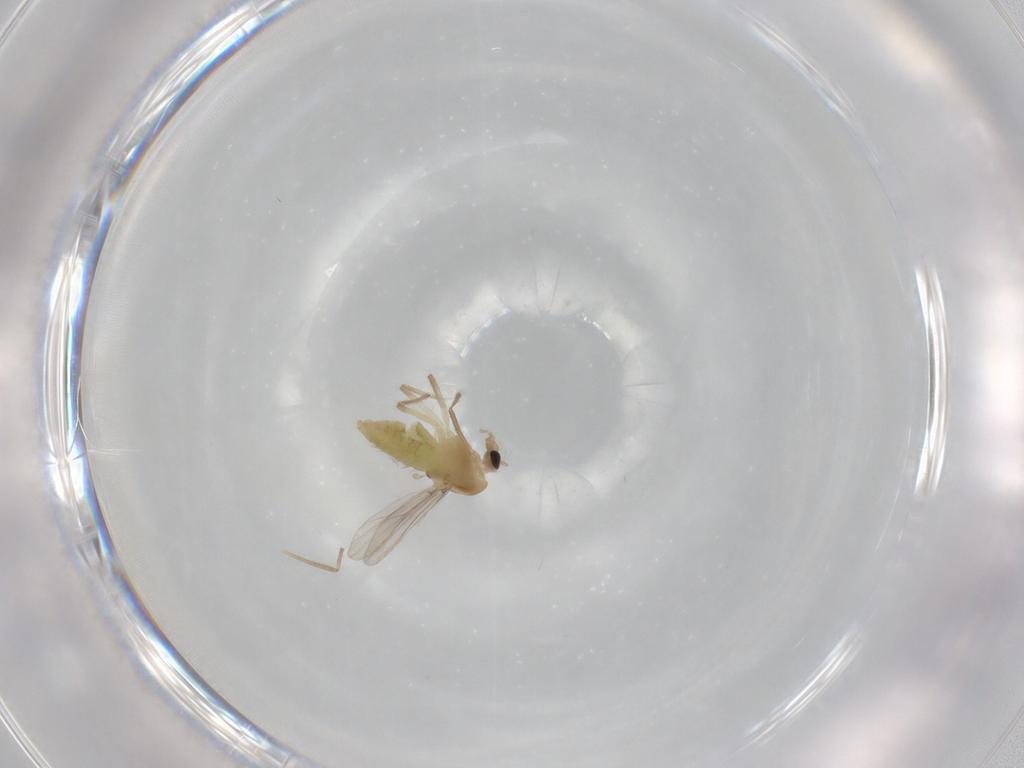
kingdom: Animalia
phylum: Arthropoda
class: Insecta
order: Diptera
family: Chironomidae
